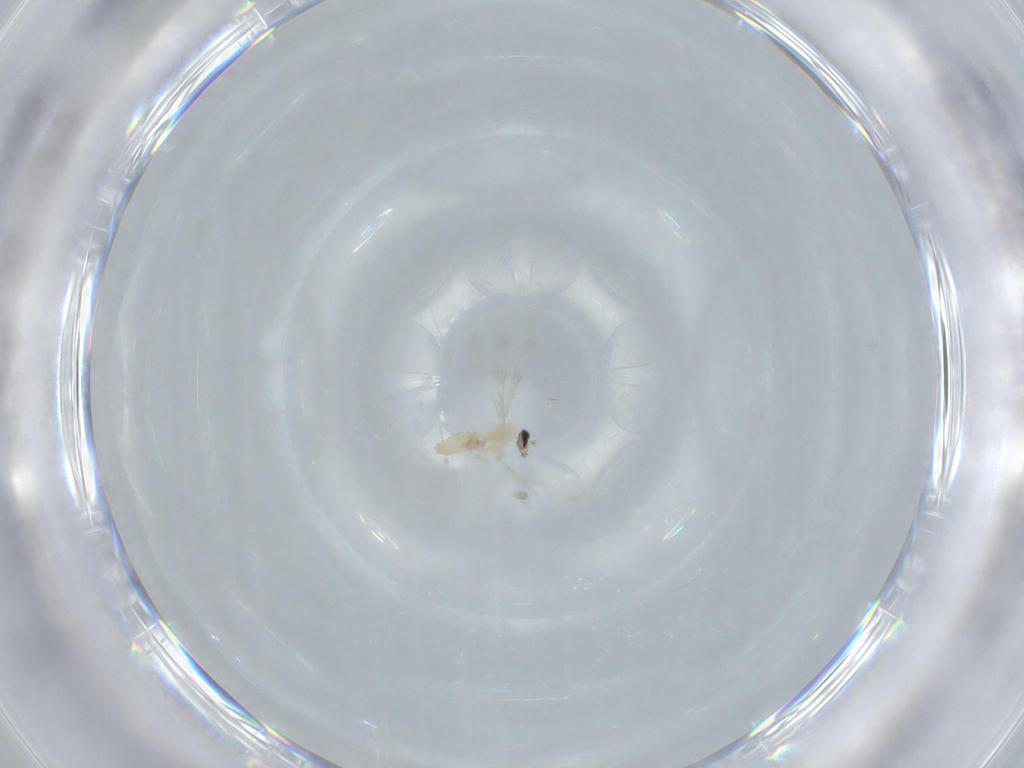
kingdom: Animalia
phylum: Arthropoda
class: Insecta
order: Diptera
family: Cecidomyiidae
